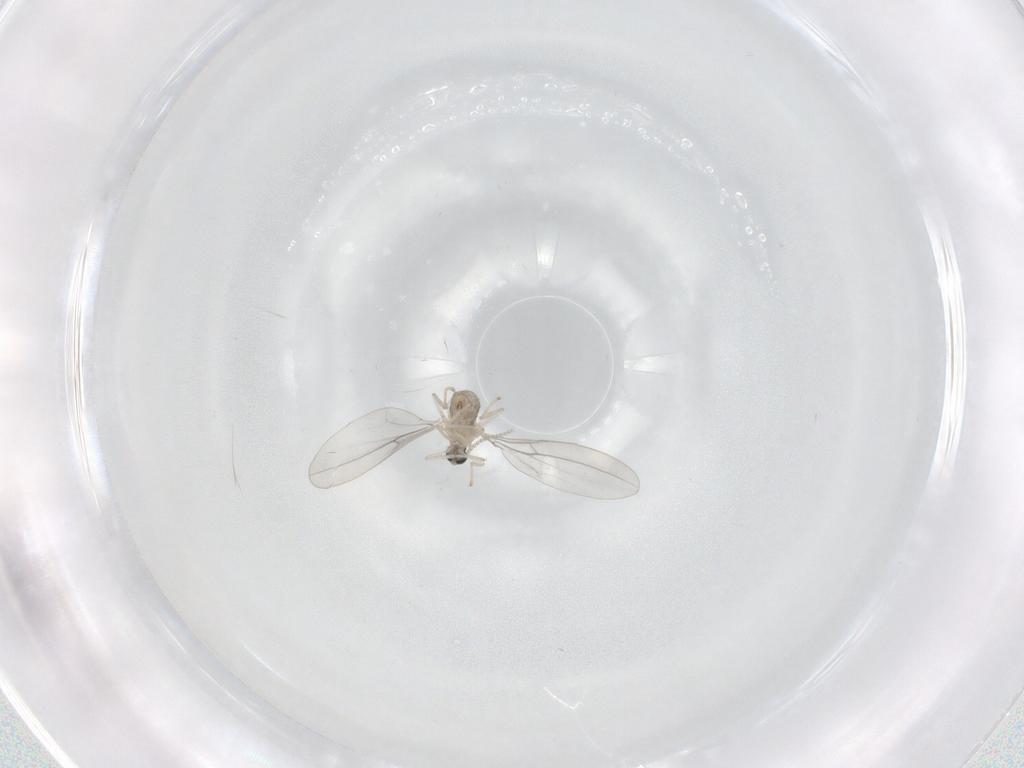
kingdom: Animalia
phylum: Arthropoda
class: Insecta
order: Diptera
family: Cecidomyiidae
